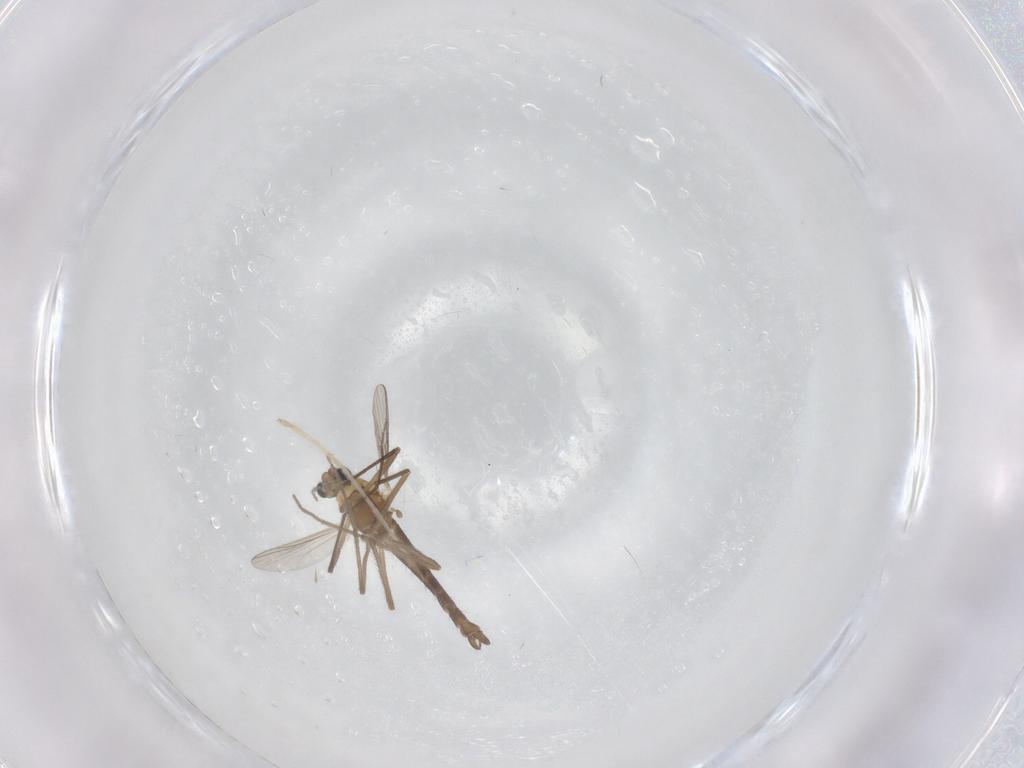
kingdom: Animalia
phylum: Arthropoda
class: Insecta
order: Diptera
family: Chironomidae
